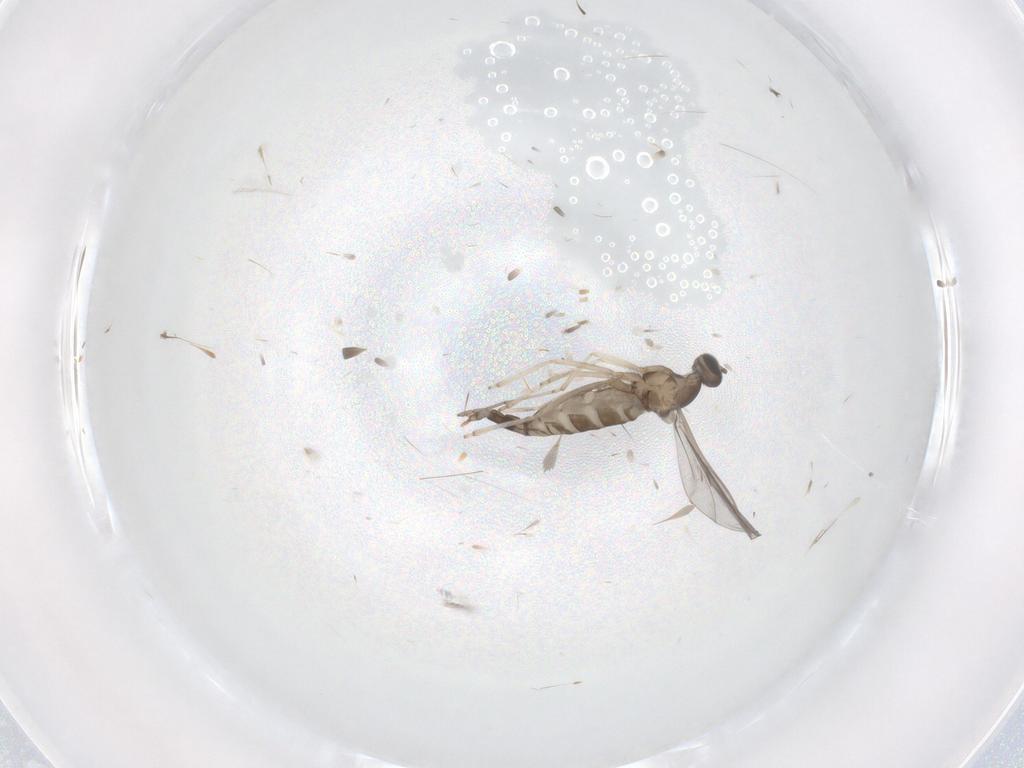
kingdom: Animalia
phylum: Arthropoda
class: Insecta
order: Diptera
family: Cecidomyiidae
